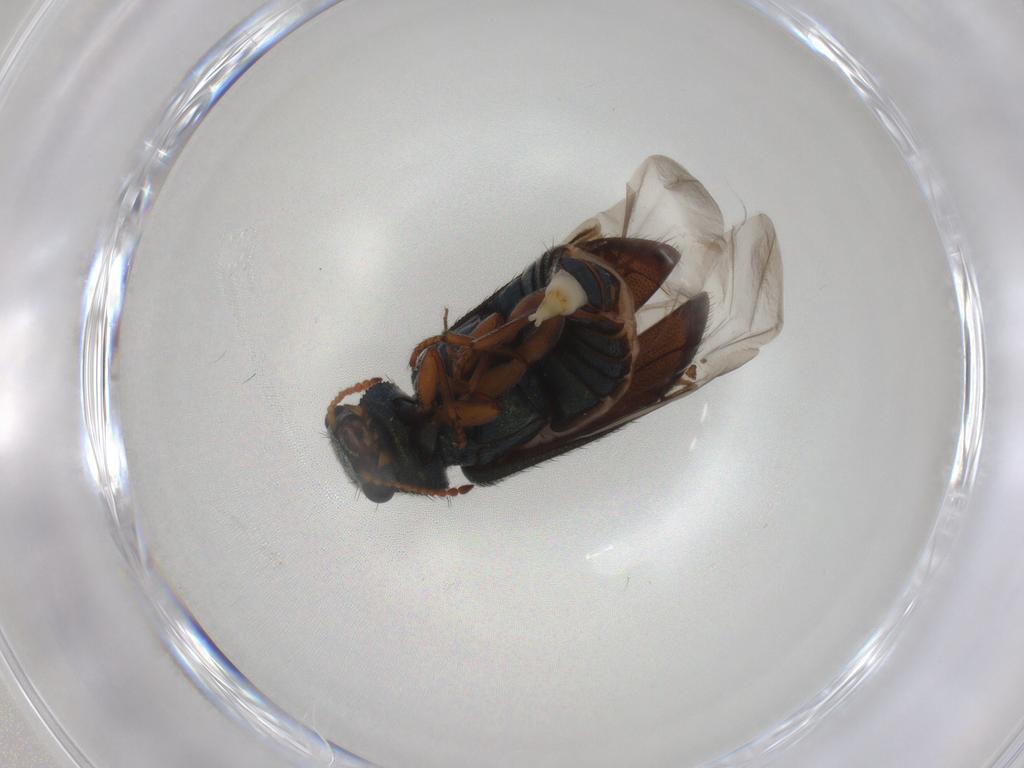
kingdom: Animalia
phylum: Arthropoda
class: Insecta
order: Coleoptera
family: Melyridae
